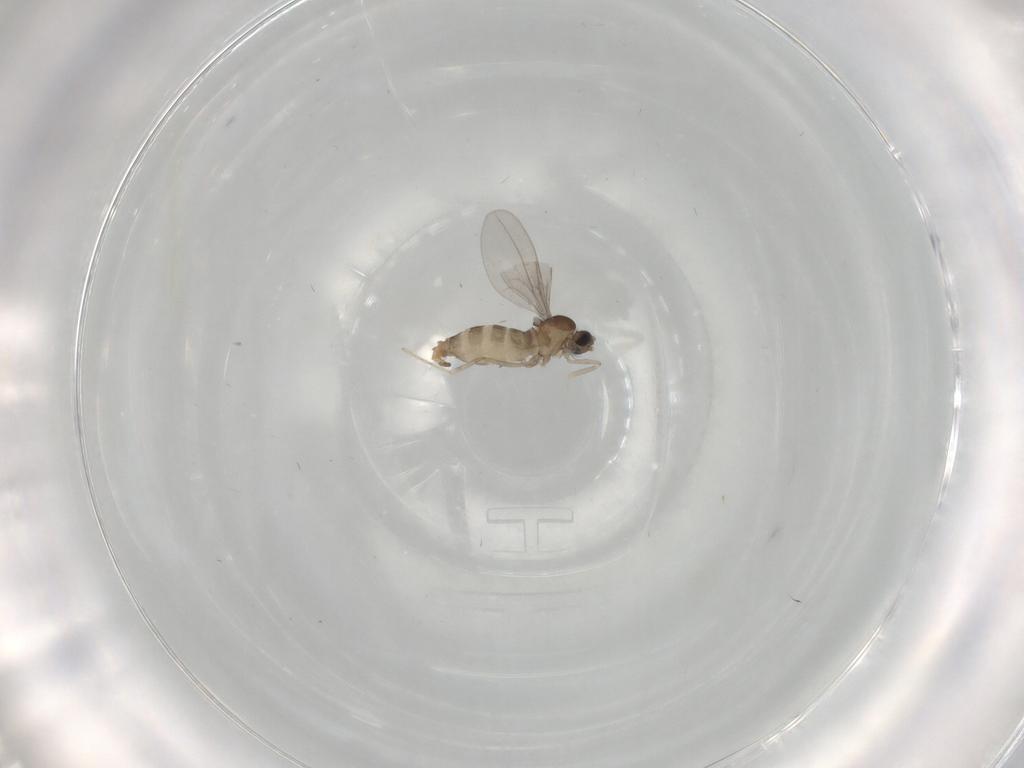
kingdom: Animalia
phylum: Arthropoda
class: Insecta
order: Diptera
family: Cecidomyiidae
